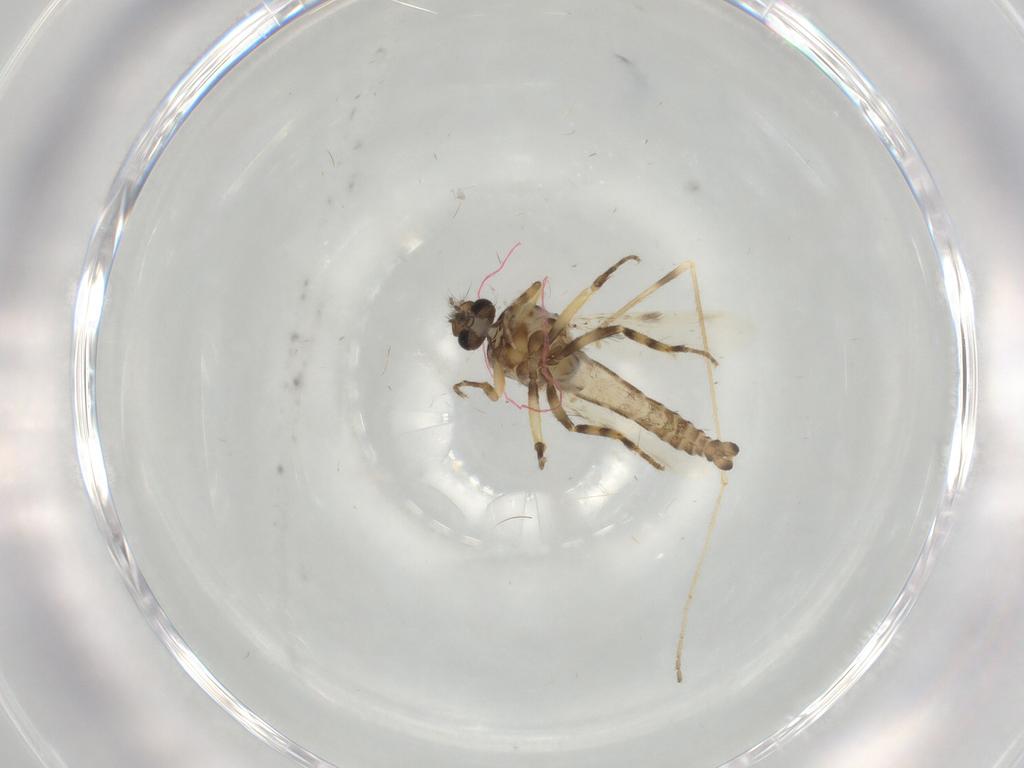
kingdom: Animalia
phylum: Arthropoda
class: Insecta
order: Diptera
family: Ceratopogonidae
